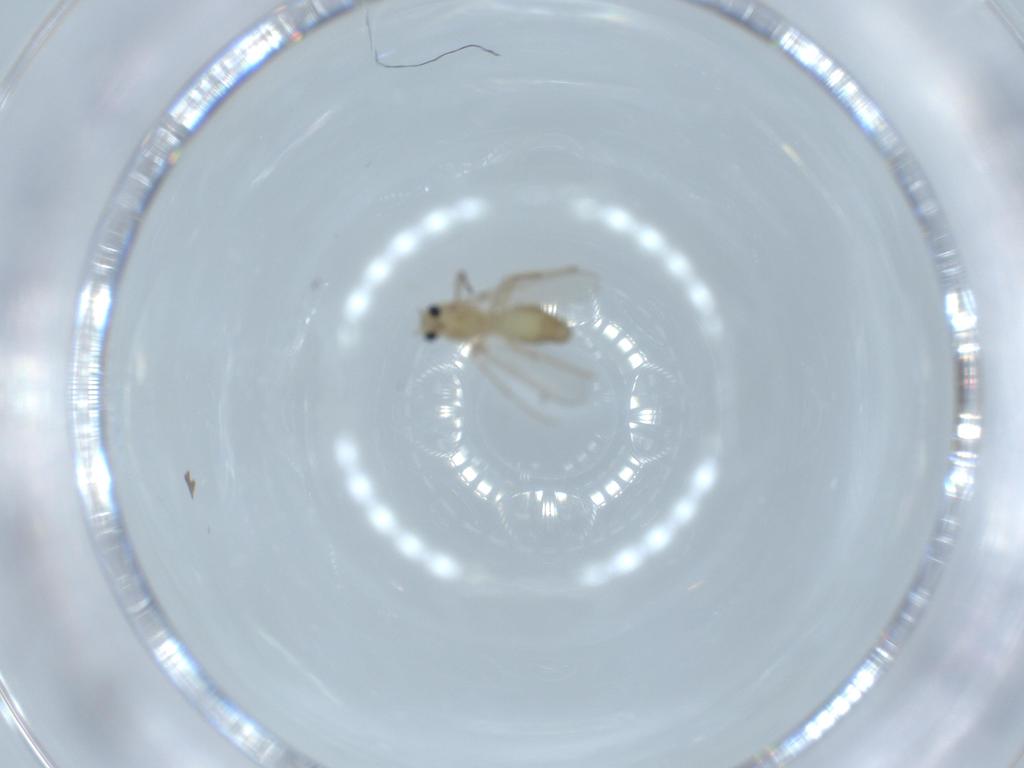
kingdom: Animalia
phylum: Arthropoda
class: Insecta
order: Diptera
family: Chironomidae
